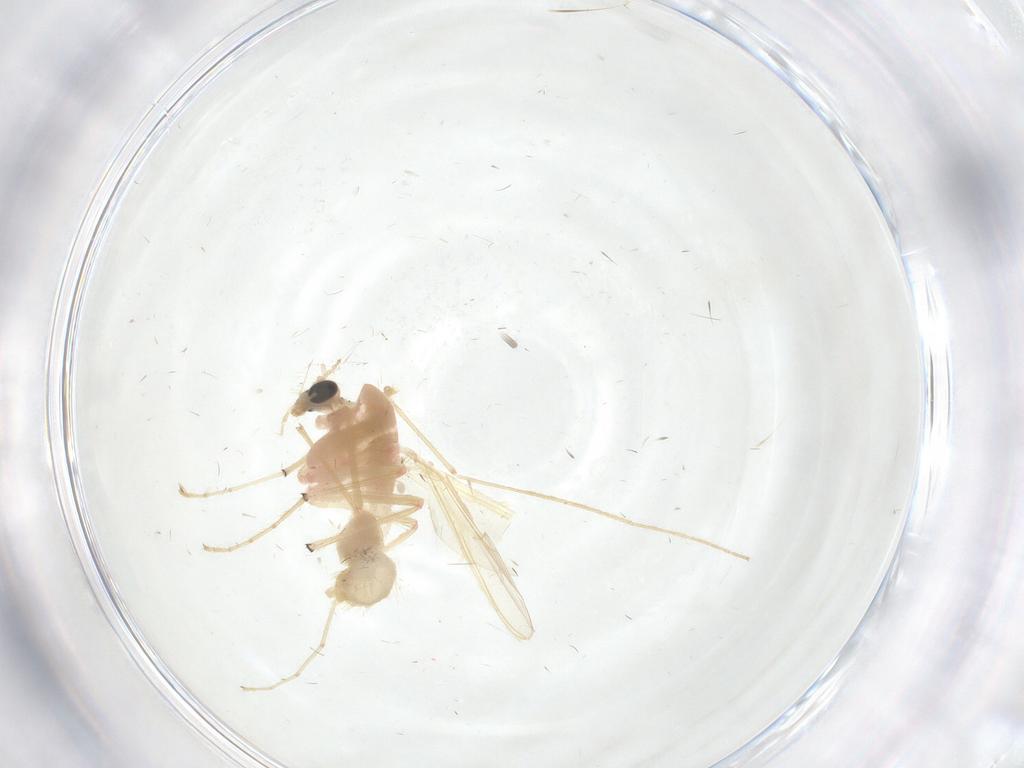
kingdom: Animalia
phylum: Arthropoda
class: Insecta
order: Diptera
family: Chironomidae
